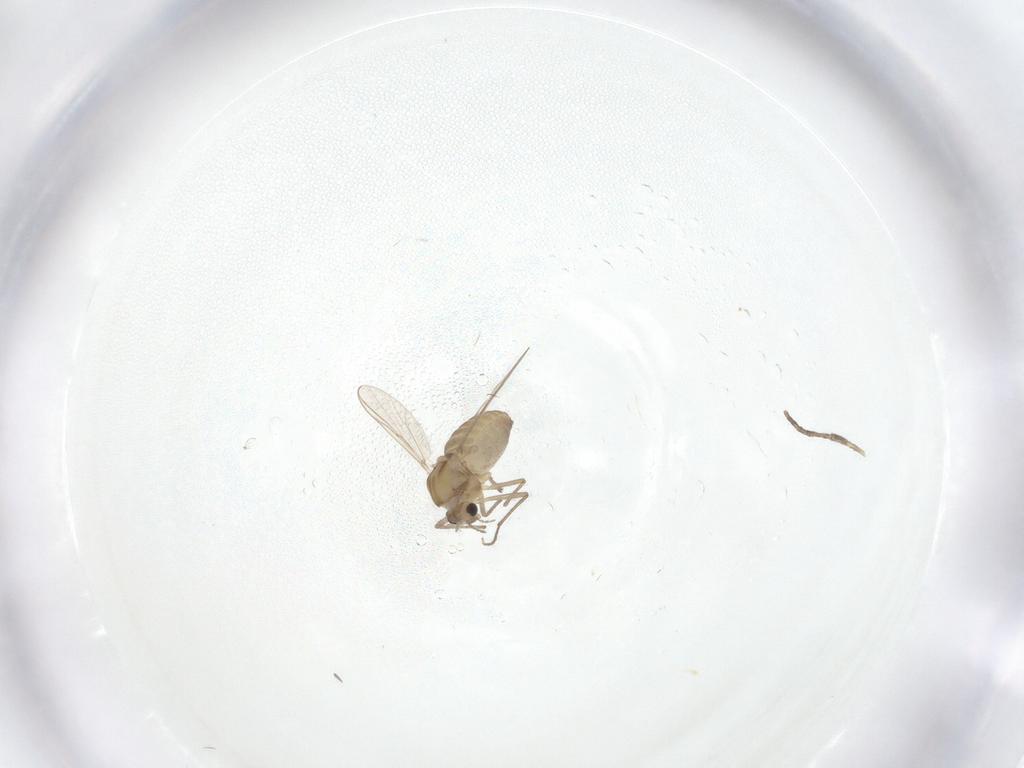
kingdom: Animalia
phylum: Arthropoda
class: Insecta
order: Diptera
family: Chironomidae
